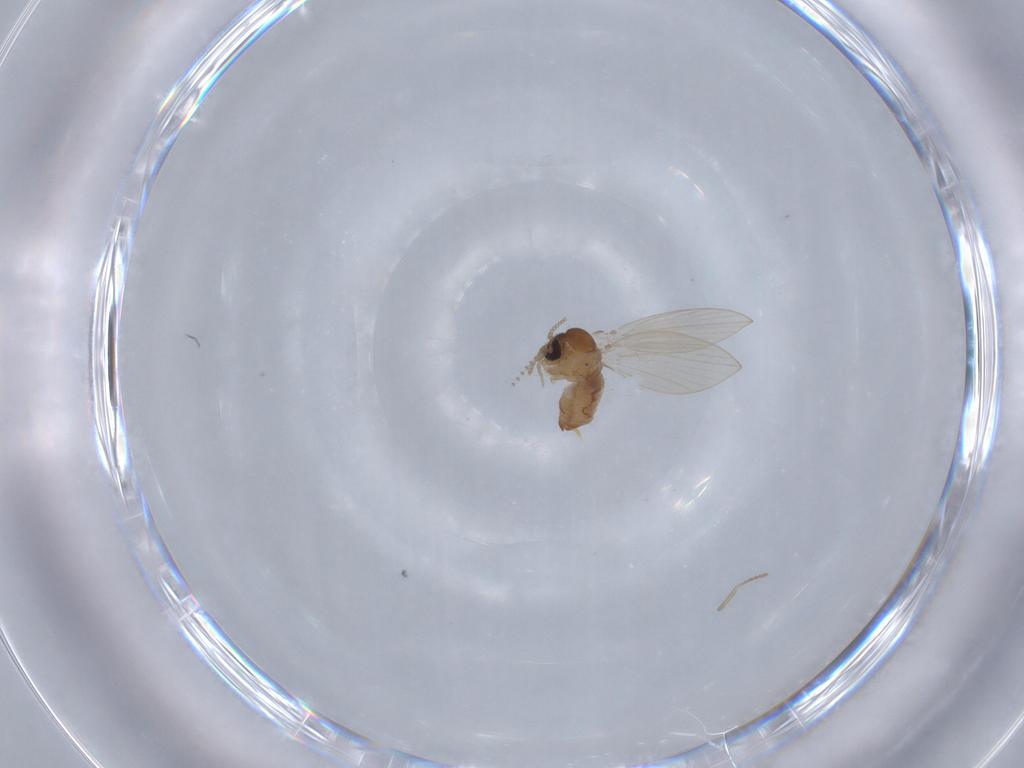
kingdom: Animalia
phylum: Arthropoda
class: Insecta
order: Diptera
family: Psychodidae
